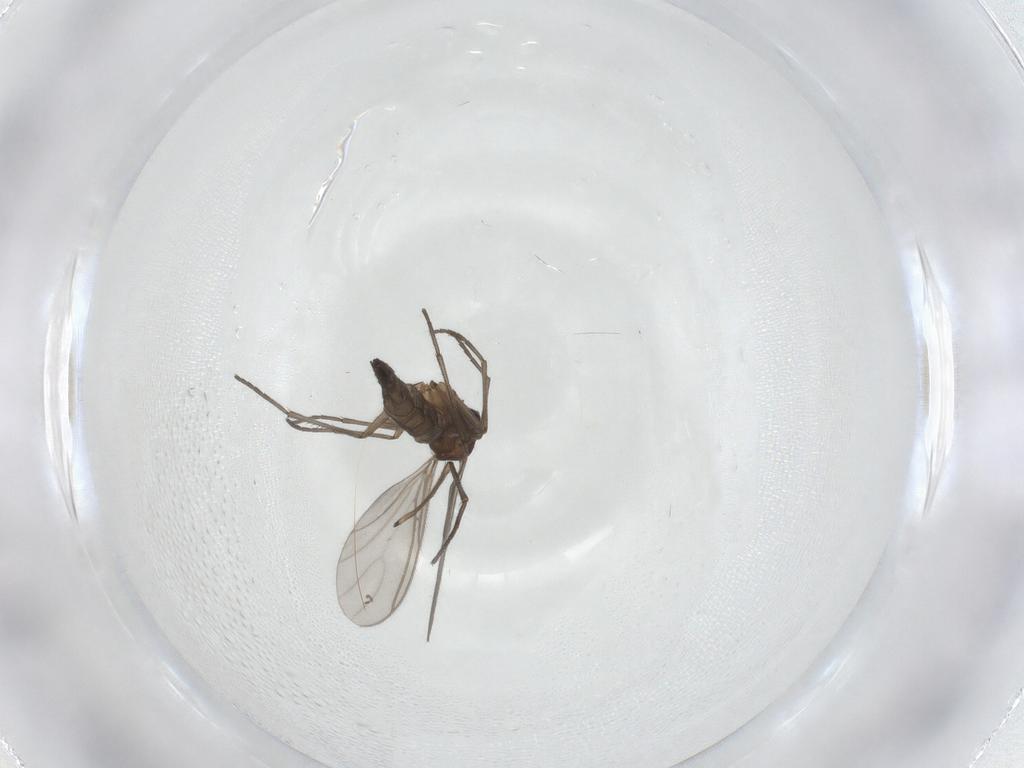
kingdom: Animalia
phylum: Arthropoda
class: Insecta
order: Diptera
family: Sciaridae
